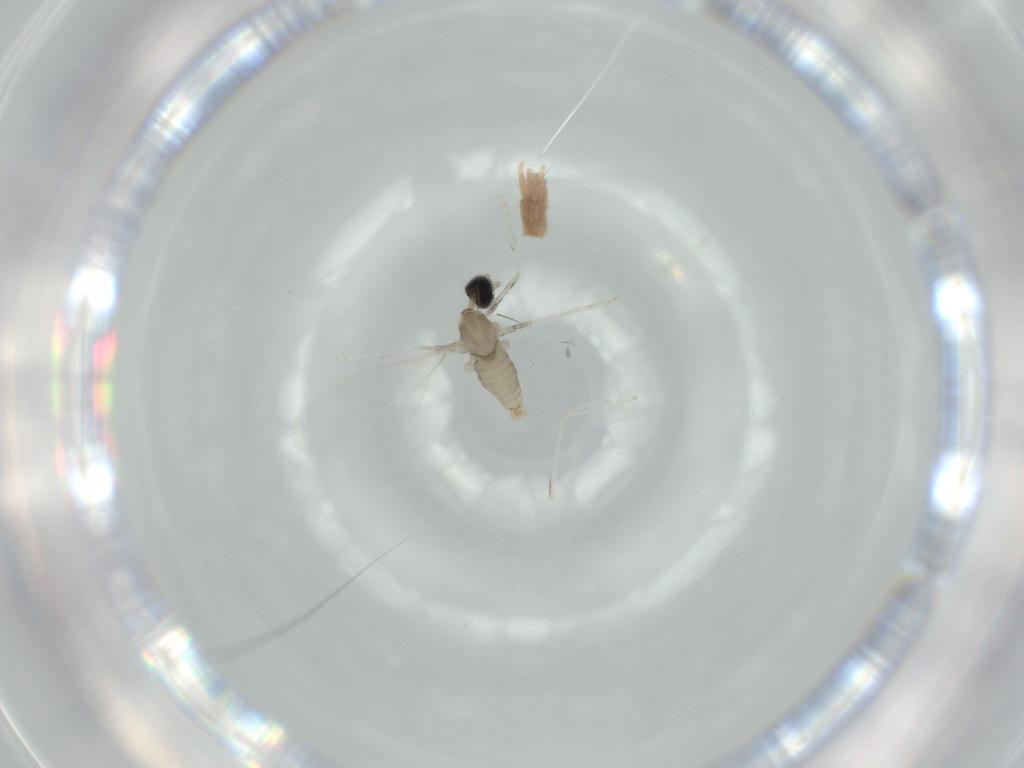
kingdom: Animalia
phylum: Arthropoda
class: Insecta
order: Diptera
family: Cecidomyiidae
